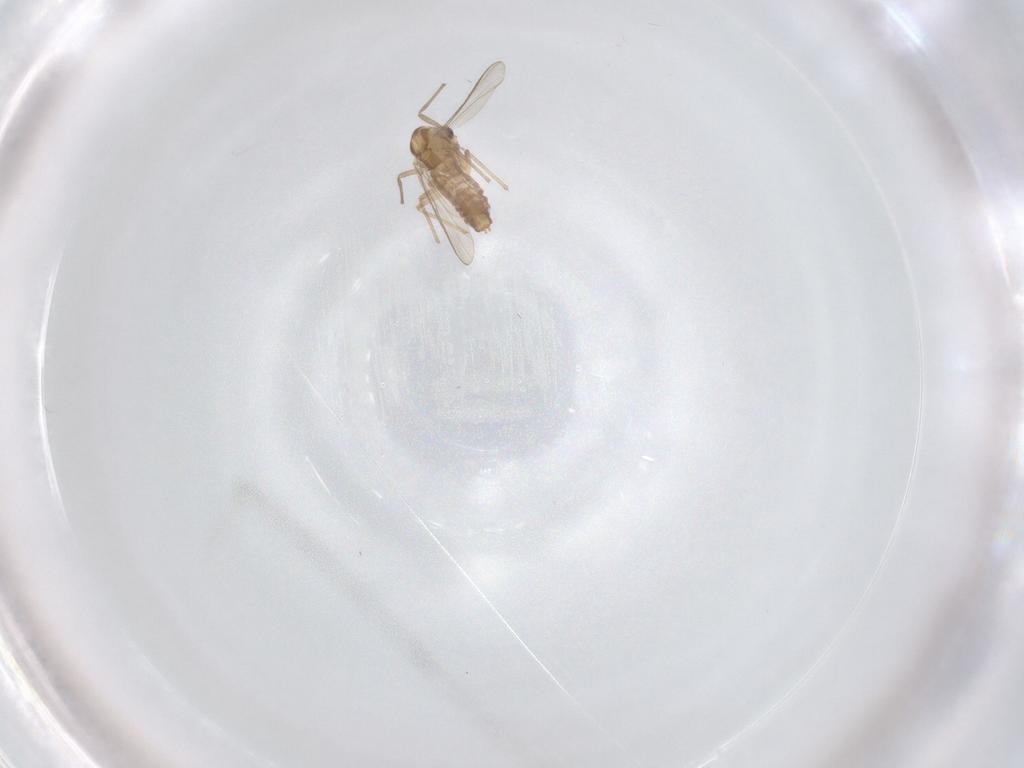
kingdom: Animalia
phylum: Arthropoda
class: Insecta
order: Diptera
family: Chironomidae
